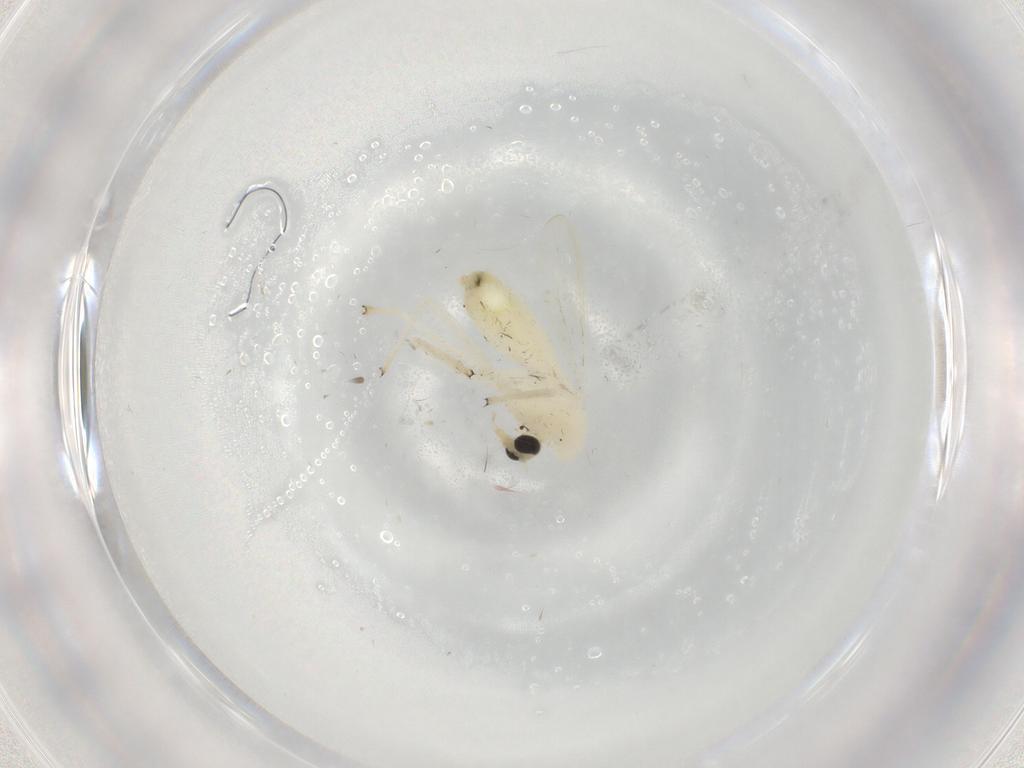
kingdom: Animalia
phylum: Arthropoda
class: Insecta
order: Diptera
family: Chironomidae
